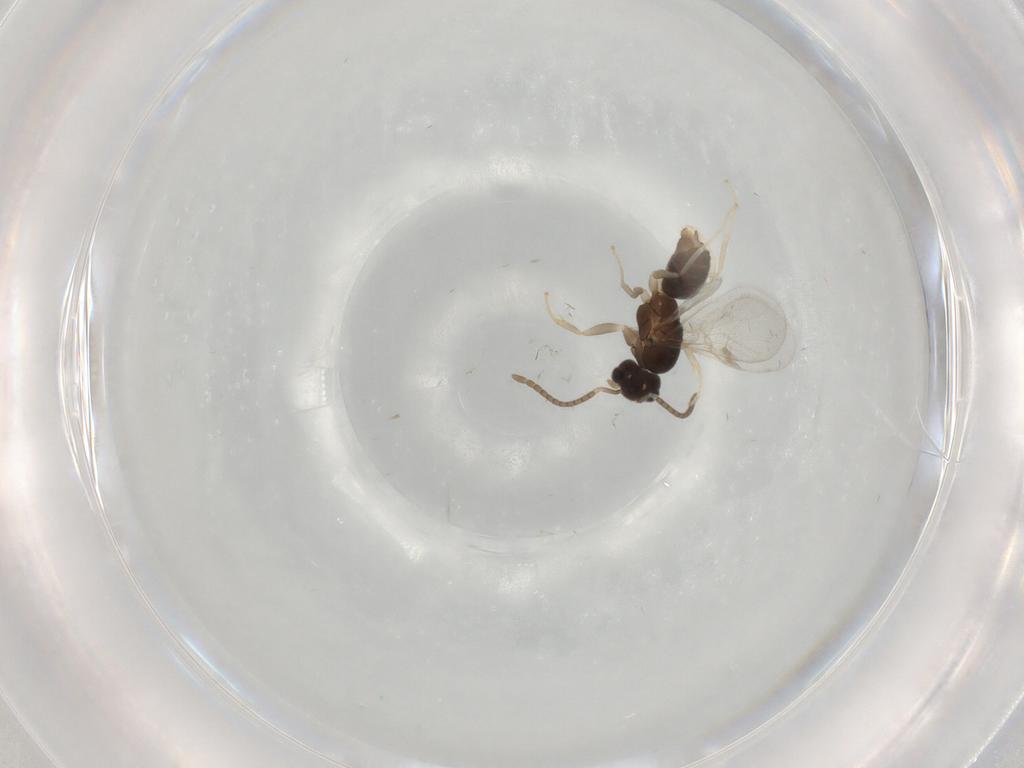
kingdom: Animalia
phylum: Arthropoda
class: Insecta
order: Hymenoptera
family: Formicidae
